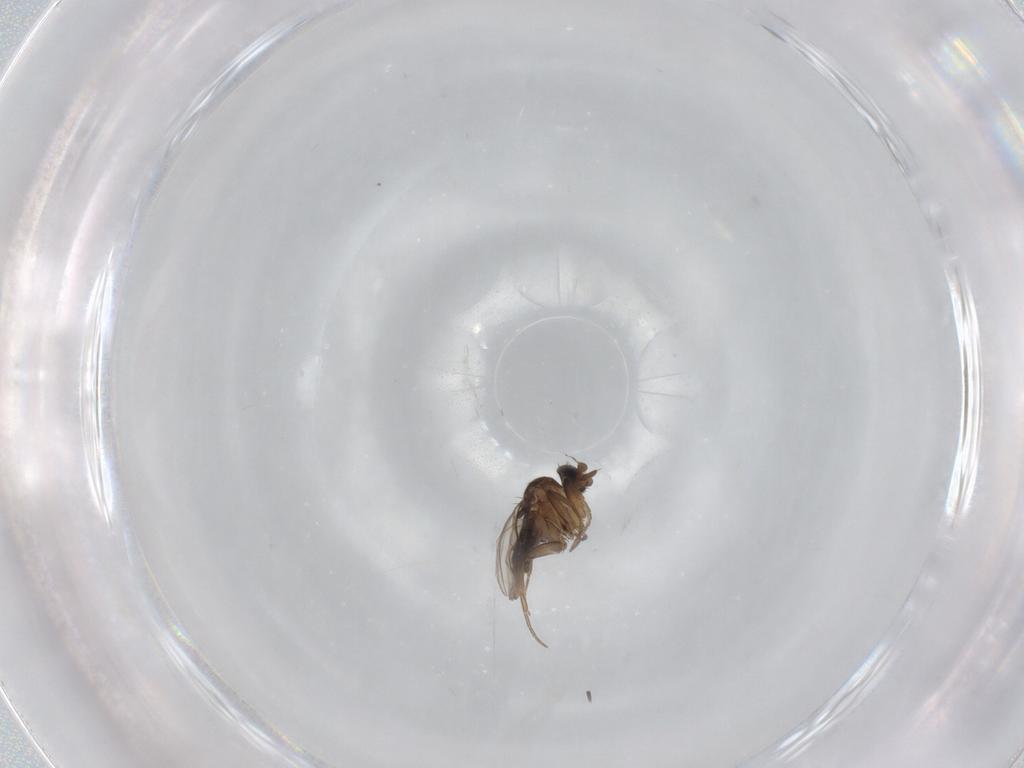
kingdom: Animalia
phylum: Arthropoda
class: Insecta
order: Diptera
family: Phoridae
